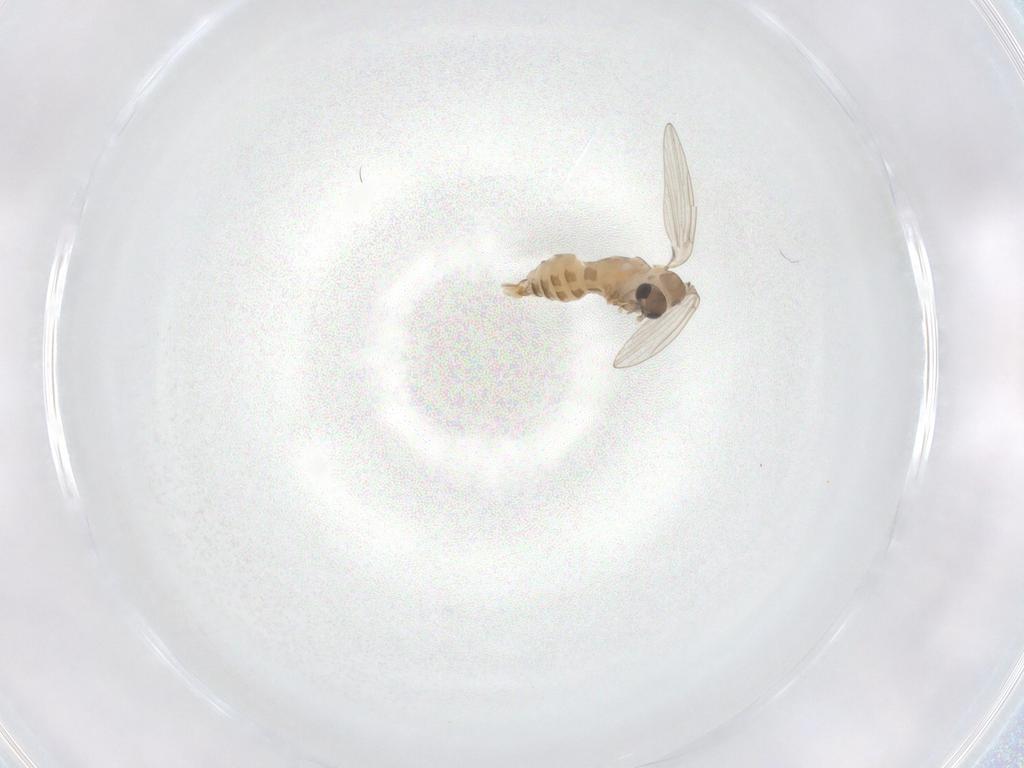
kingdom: Animalia
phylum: Arthropoda
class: Insecta
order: Diptera
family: Psychodidae
